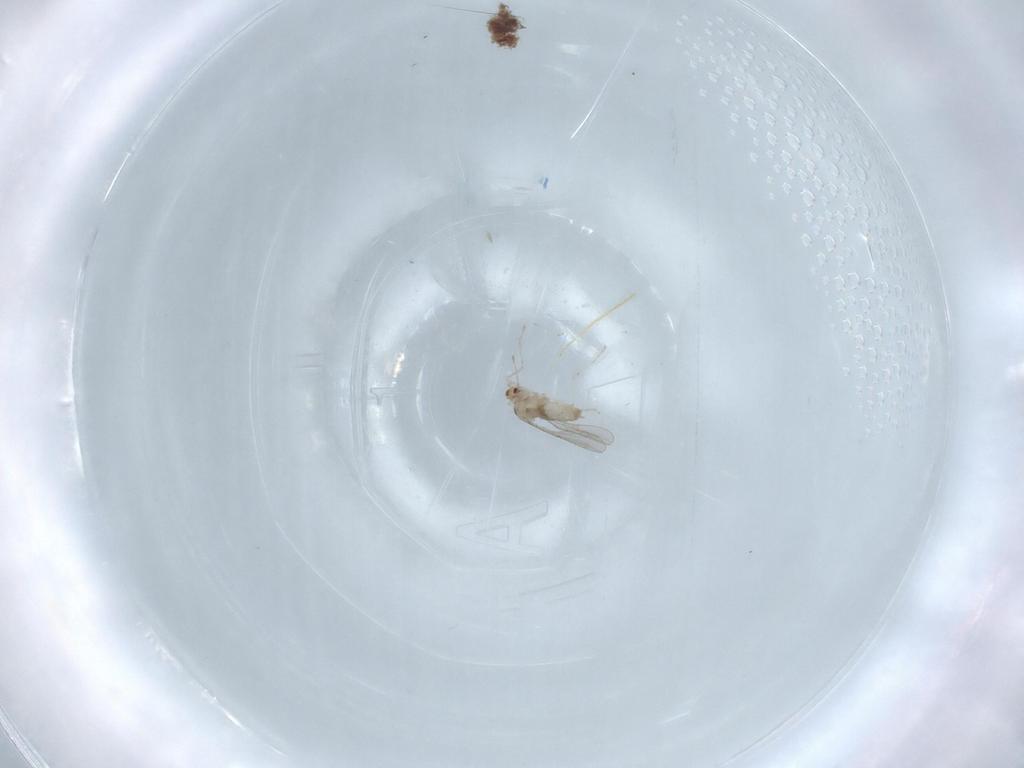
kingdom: Animalia
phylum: Arthropoda
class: Insecta
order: Diptera
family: Cecidomyiidae
